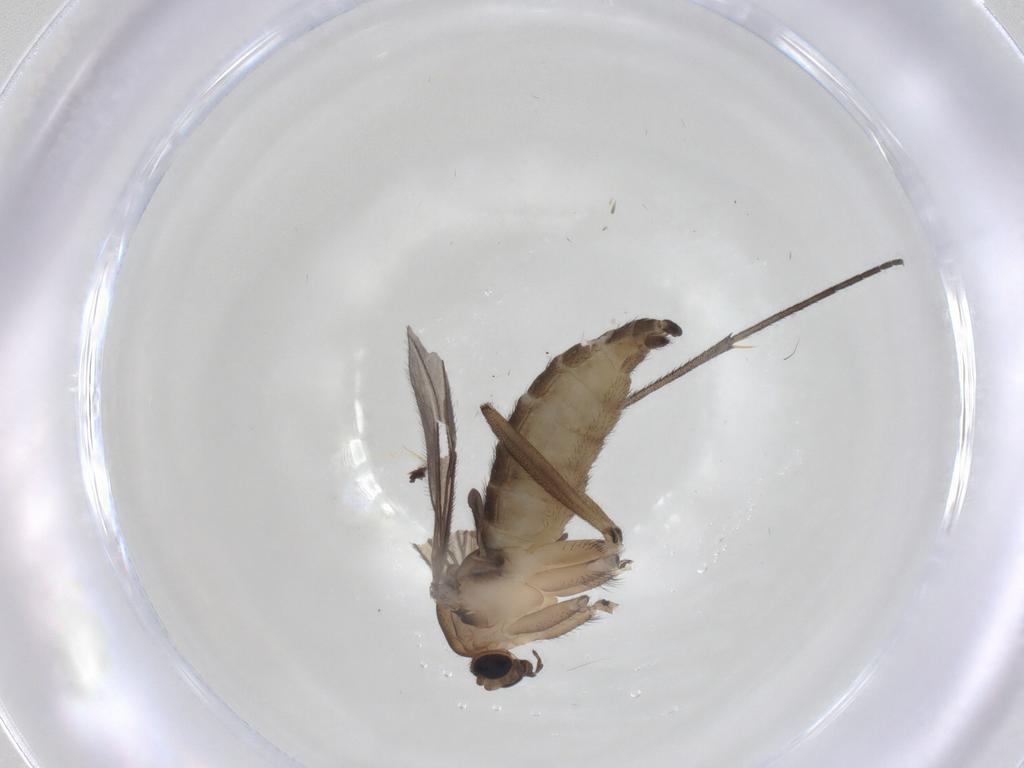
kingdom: Animalia
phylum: Arthropoda
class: Insecta
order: Diptera
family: Sciaridae
